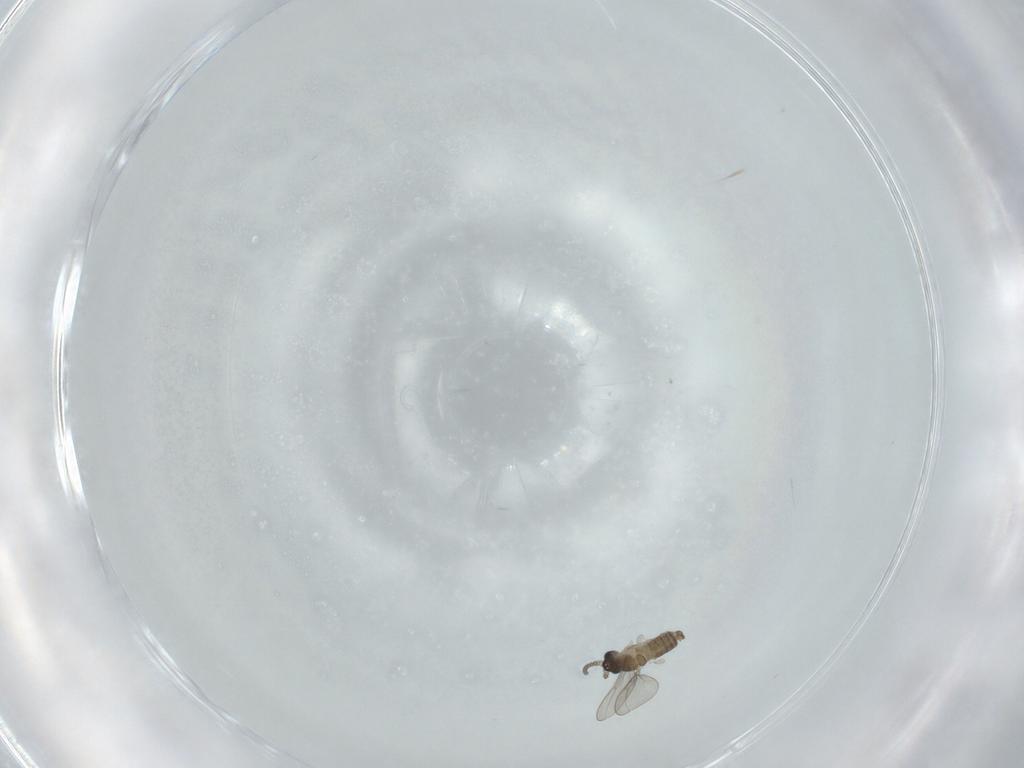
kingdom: Animalia
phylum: Arthropoda
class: Insecta
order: Diptera
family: Cecidomyiidae
